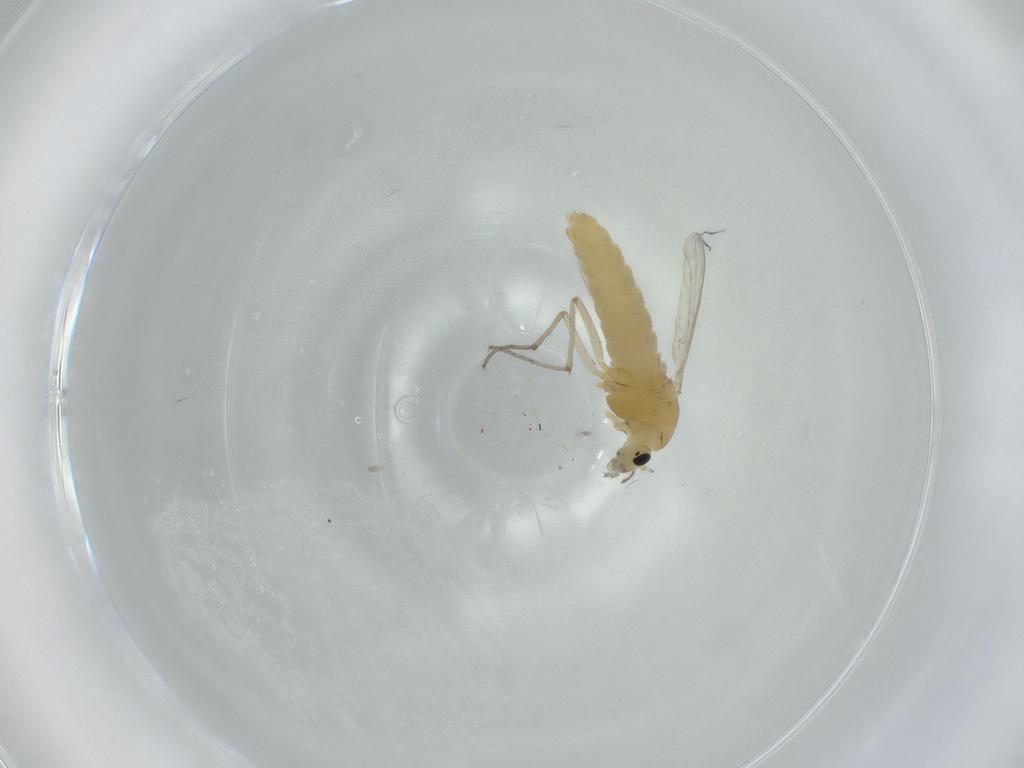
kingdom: Animalia
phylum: Arthropoda
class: Insecta
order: Diptera
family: Chironomidae
